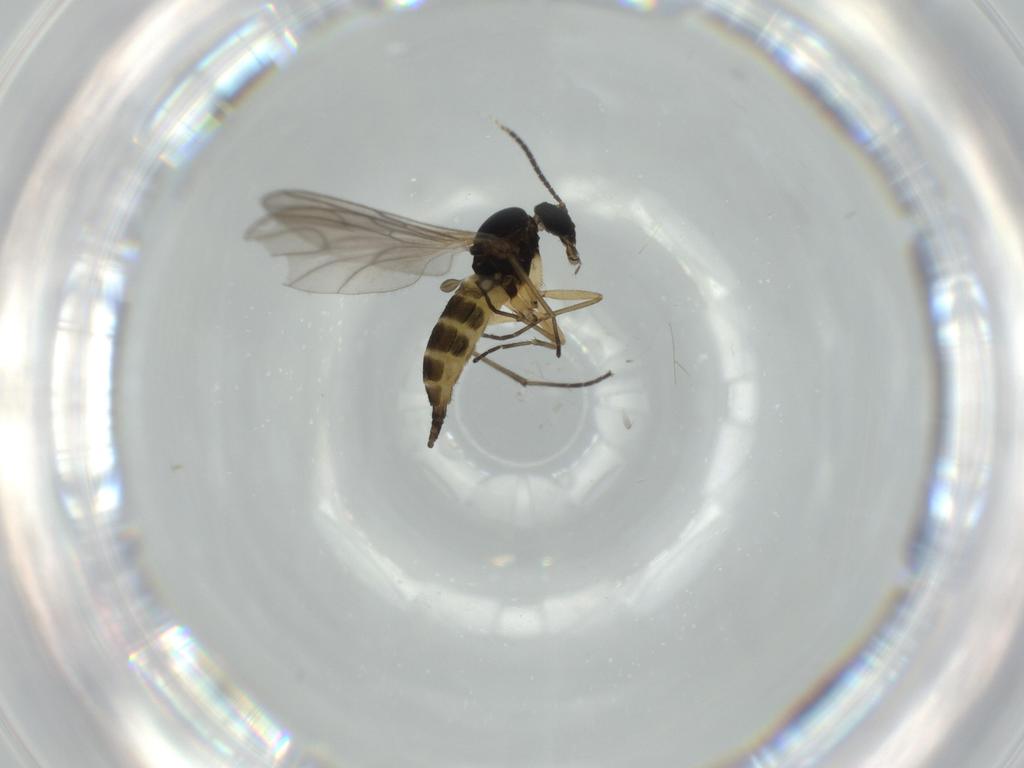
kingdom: Animalia
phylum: Arthropoda
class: Insecta
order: Diptera
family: Sciaridae
